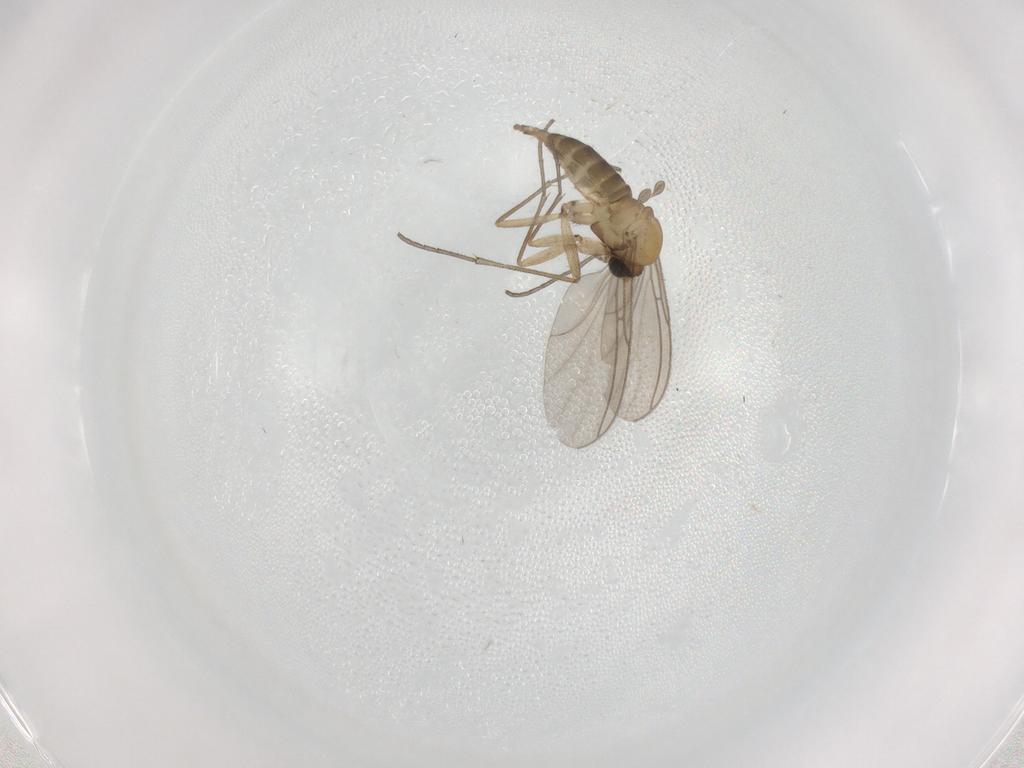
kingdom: Animalia
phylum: Arthropoda
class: Insecta
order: Diptera
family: Sciaridae
